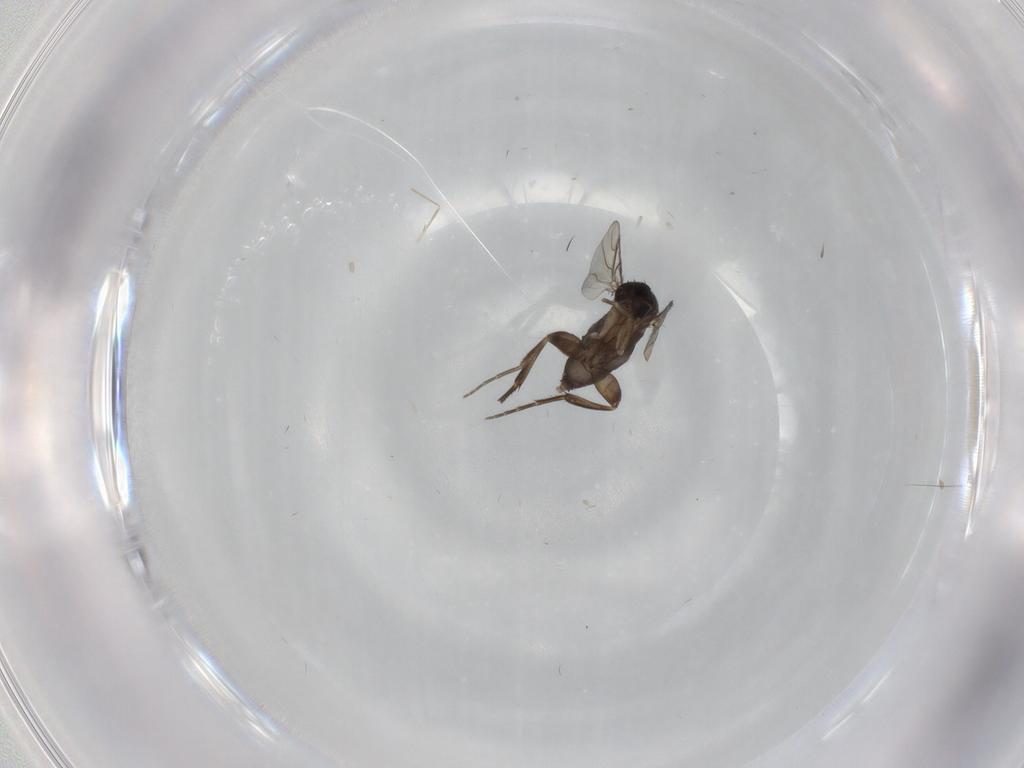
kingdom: Animalia
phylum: Arthropoda
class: Insecta
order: Diptera
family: Phoridae
